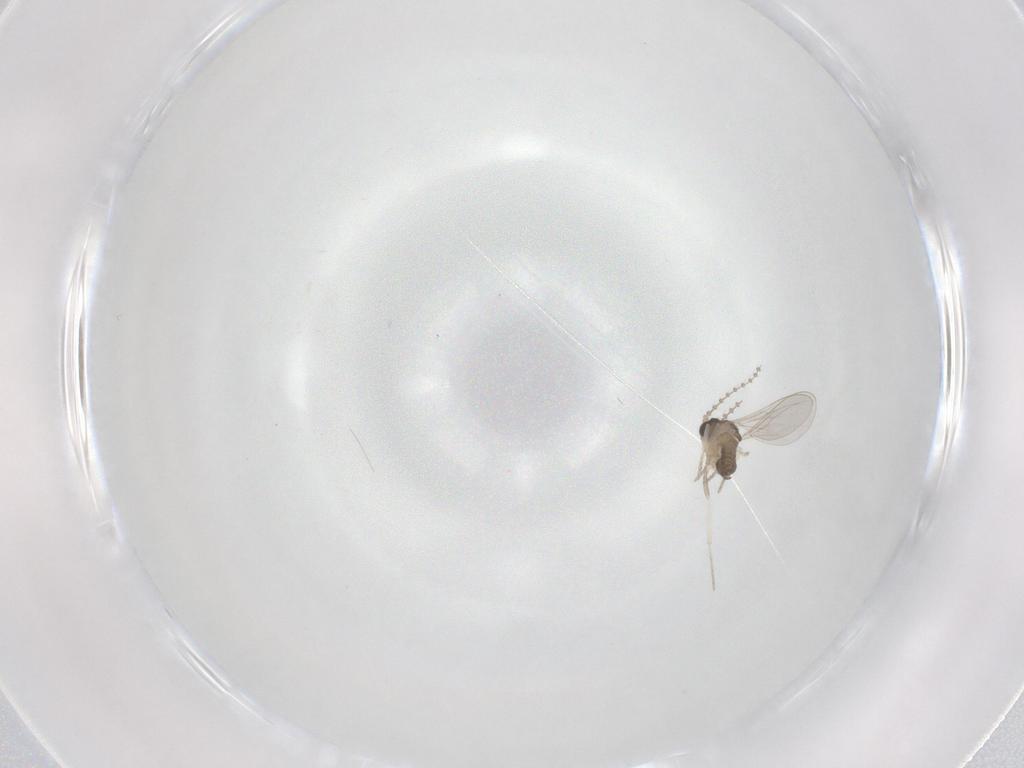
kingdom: Animalia
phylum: Arthropoda
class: Insecta
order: Diptera
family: Cecidomyiidae
